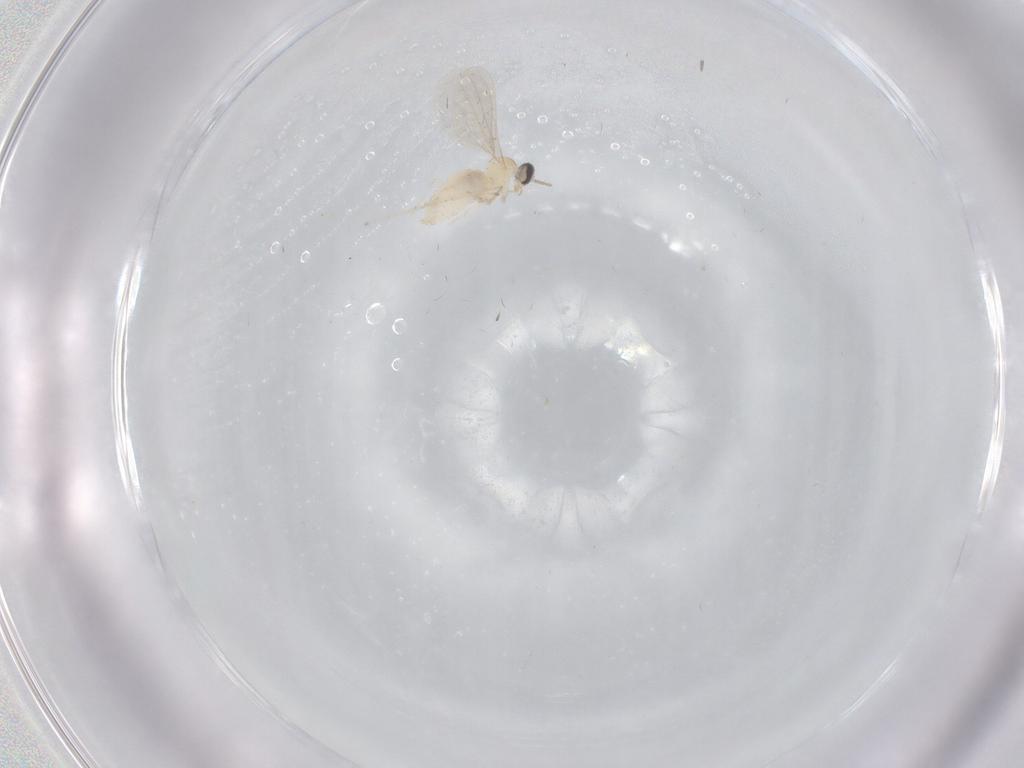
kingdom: Animalia
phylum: Arthropoda
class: Insecta
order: Diptera
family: Cecidomyiidae
